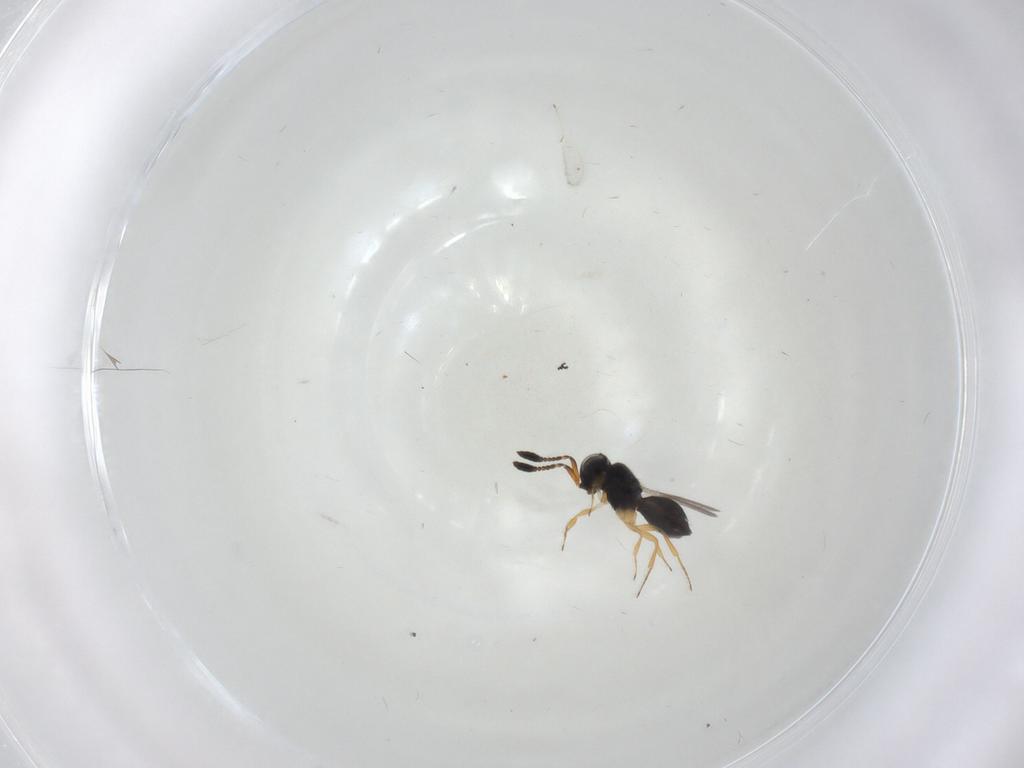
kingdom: Animalia
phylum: Arthropoda
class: Insecta
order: Hymenoptera
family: Scelionidae
